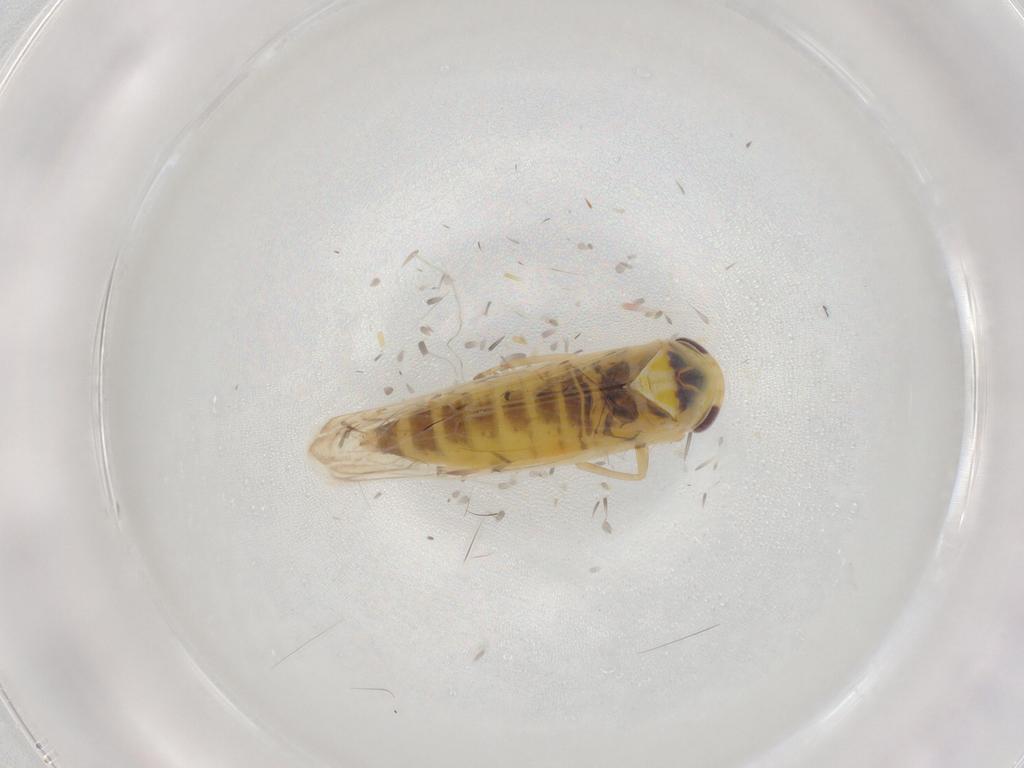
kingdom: Animalia
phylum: Arthropoda
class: Insecta
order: Hemiptera
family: Cicadellidae
